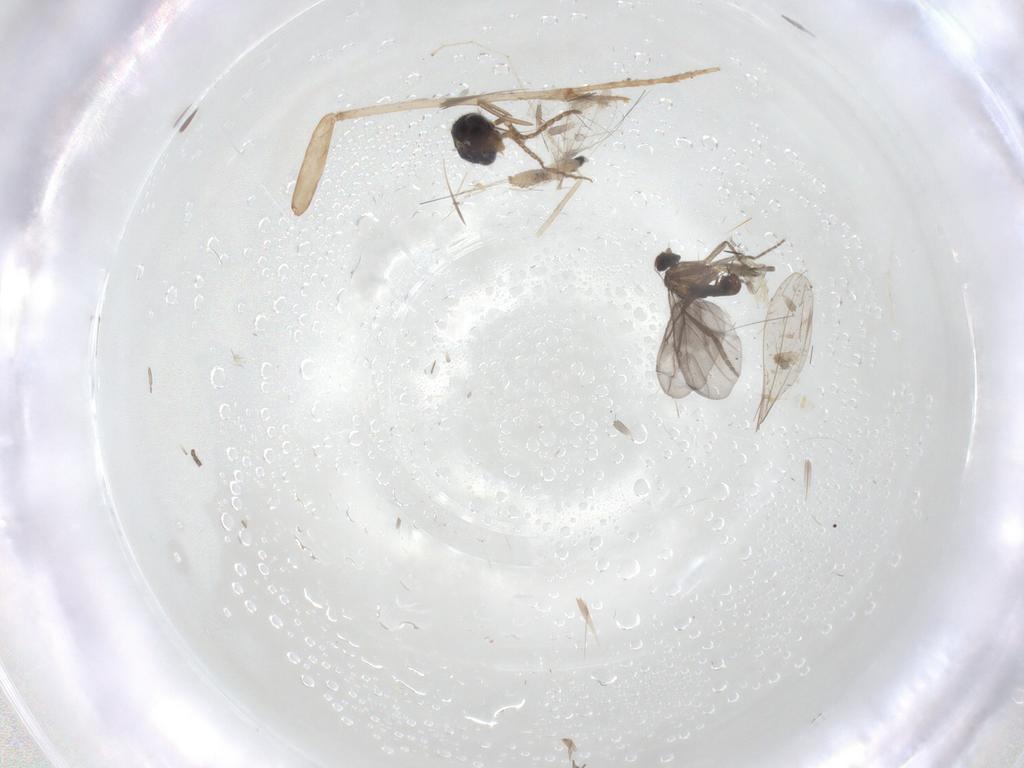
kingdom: Animalia
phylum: Arthropoda
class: Insecta
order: Diptera
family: Cecidomyiidae
